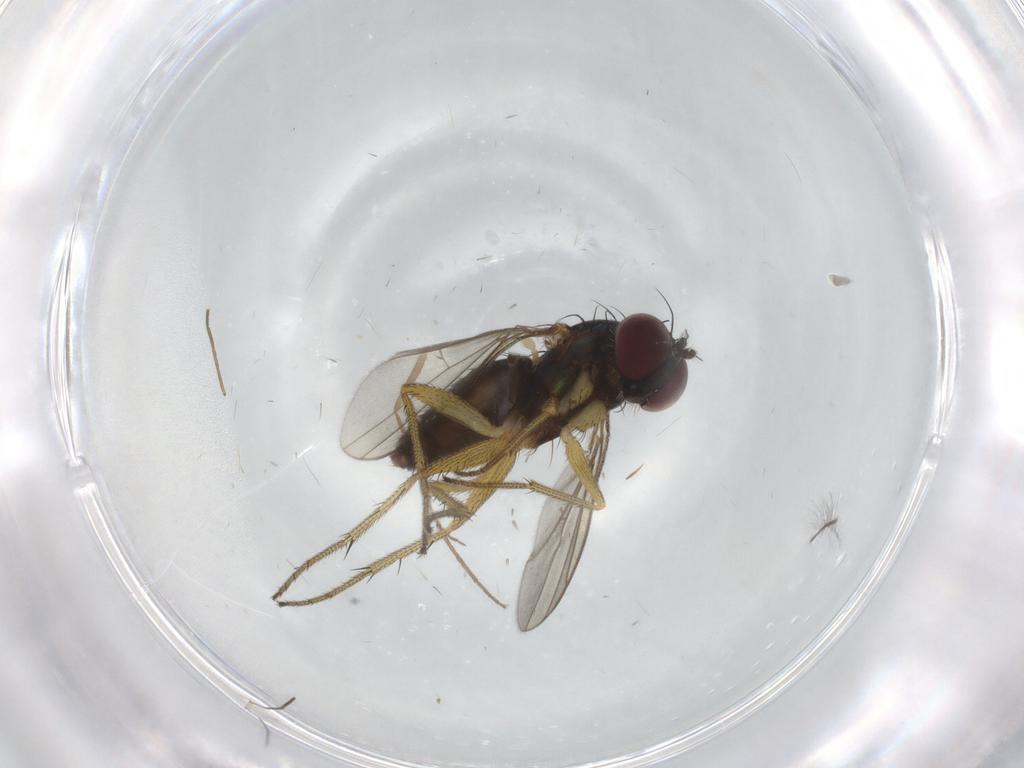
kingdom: Animalia
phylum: Arthropoda
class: Insecta
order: Diptera
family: Dolichopodidae
